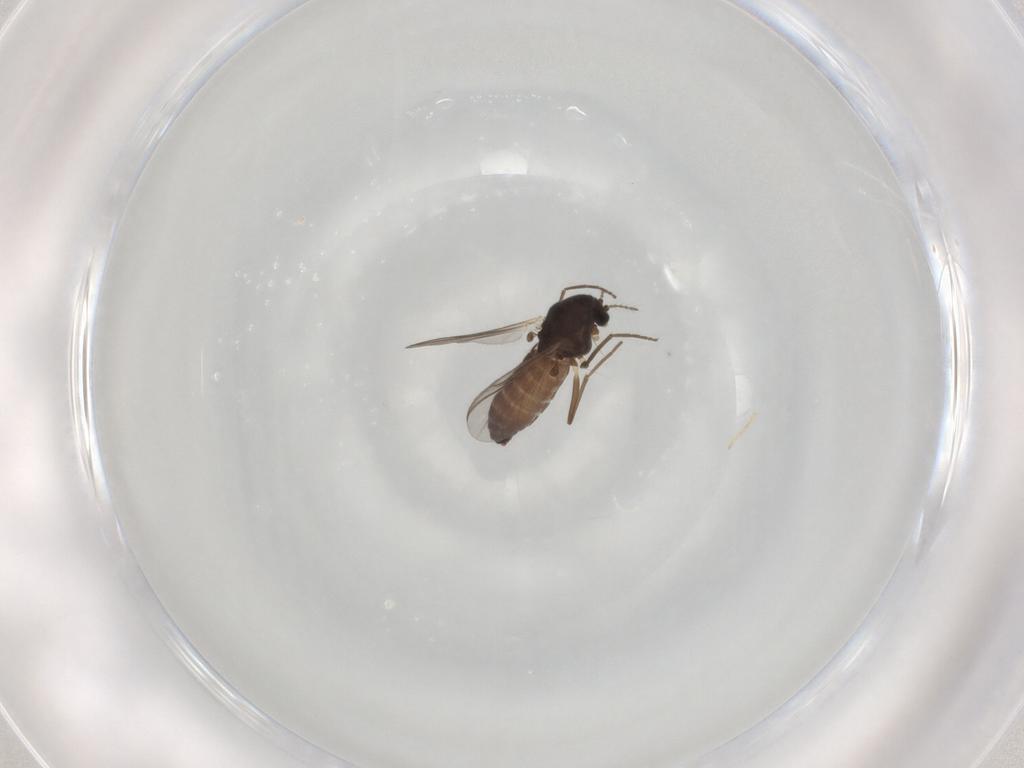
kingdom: Animalia
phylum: Arthropoda
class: Insecta
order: Diptera
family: Chironomidae
